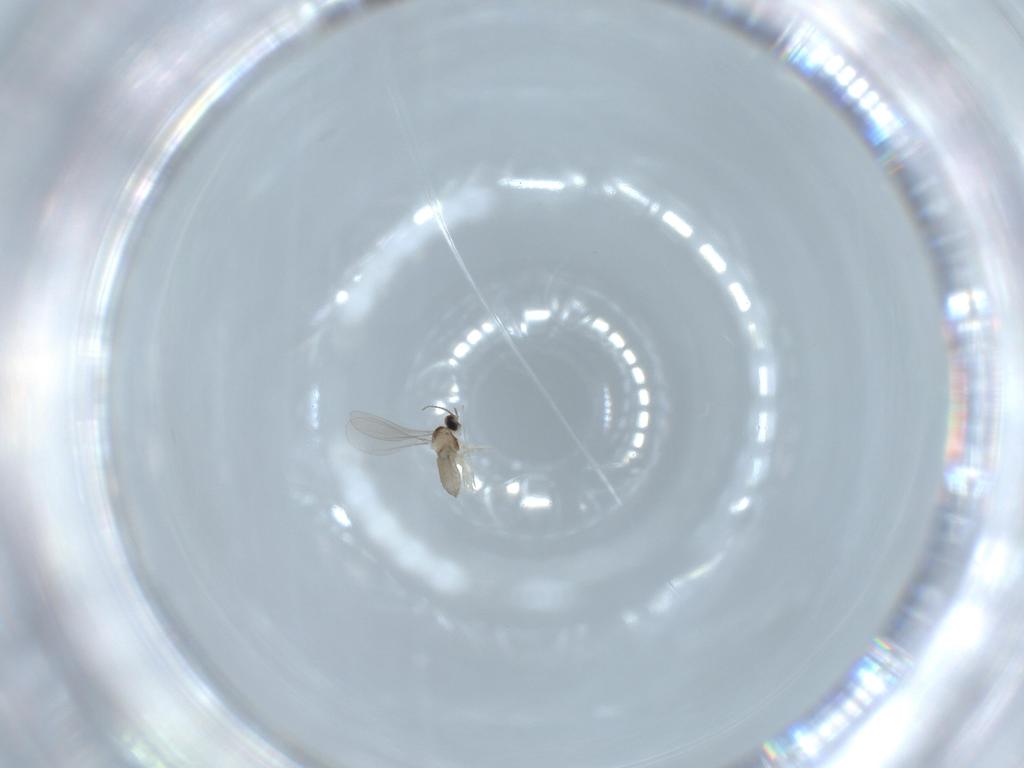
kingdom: Animalia
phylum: Arthropoda
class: Insecta
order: Diptera
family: Cecidomyiidae
